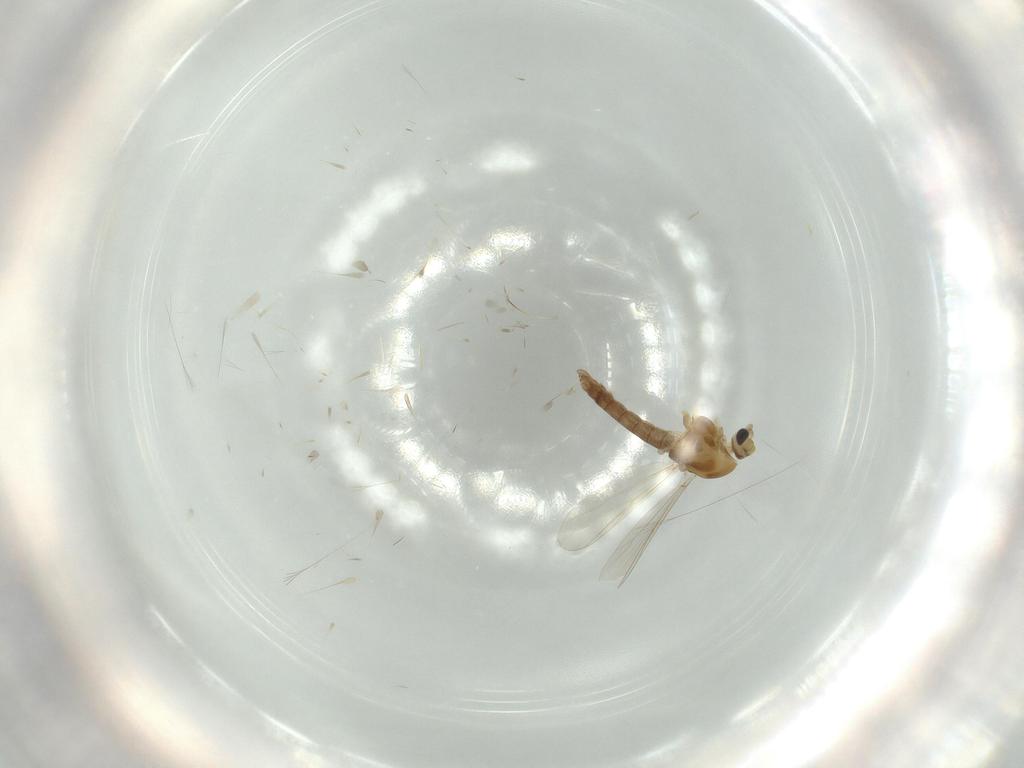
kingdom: Animalia
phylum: Arthropoda
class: Insecta
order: Diptera
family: Chironomidae
